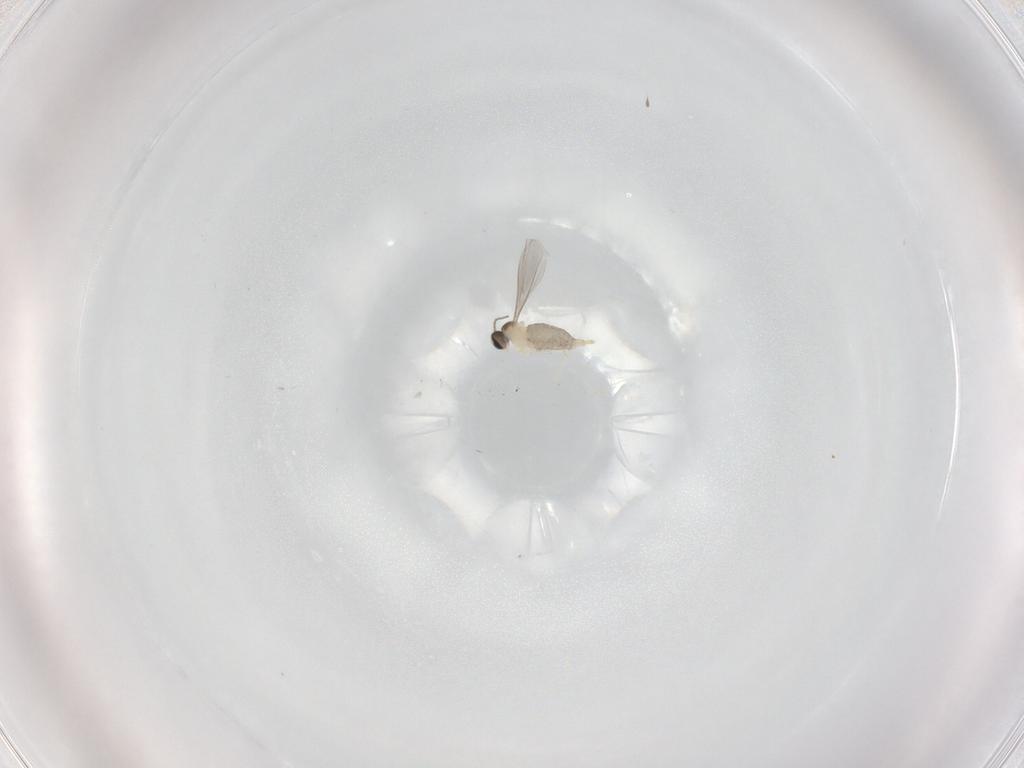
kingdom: Animalia
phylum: Arthropoda
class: Insecta
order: Diptera
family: Cecidomyiidae
